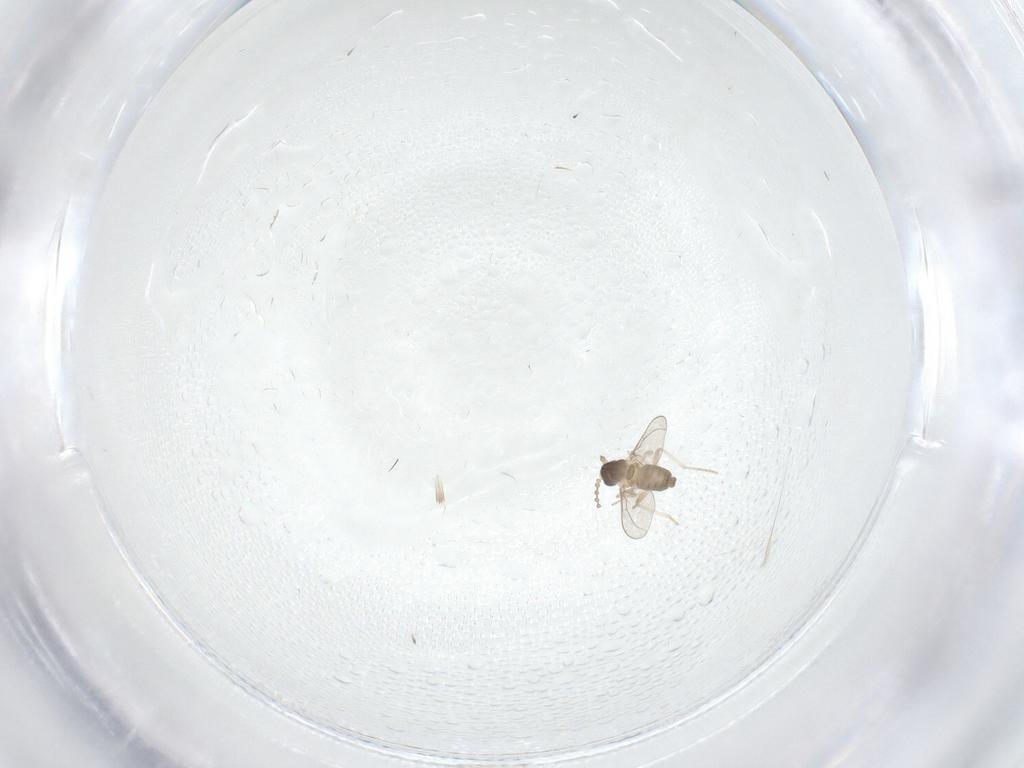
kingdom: Animalia
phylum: Arthropoda
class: Insecta
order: Diptera
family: Cecidomyiidae
